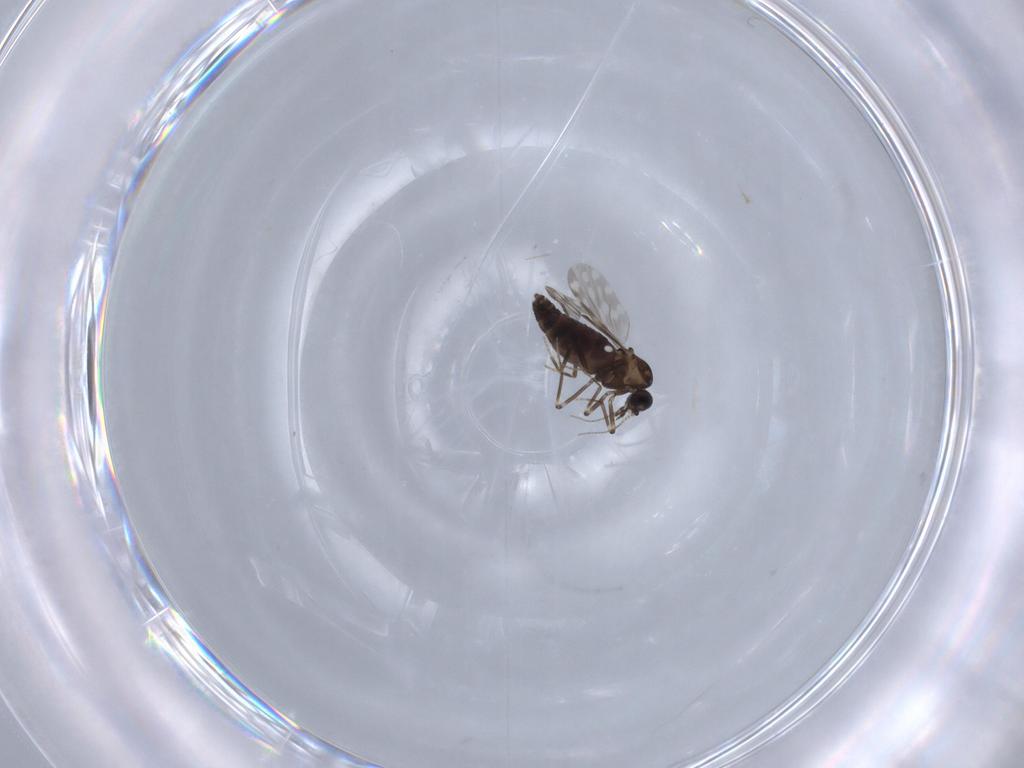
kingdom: Animalia
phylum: Arthropoda
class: Insecta
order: Diptera
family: Ceratopogonidae
